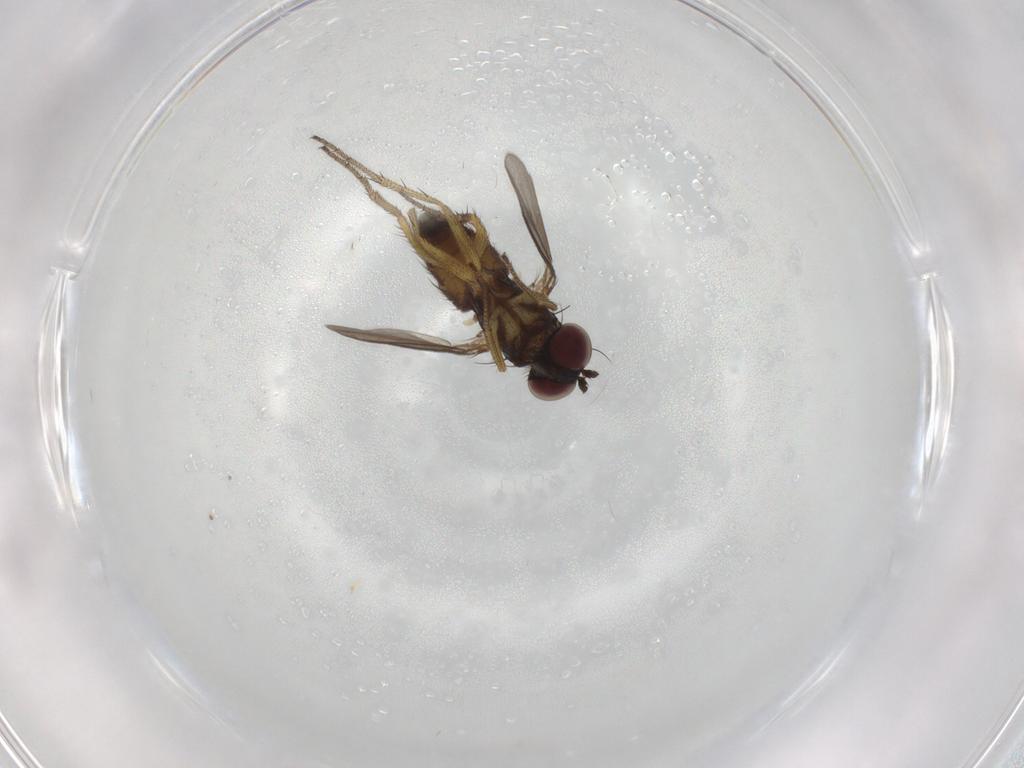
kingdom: Animalia
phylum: Arthropoda
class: Insecta
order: Diptera
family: Dolichopodidae
